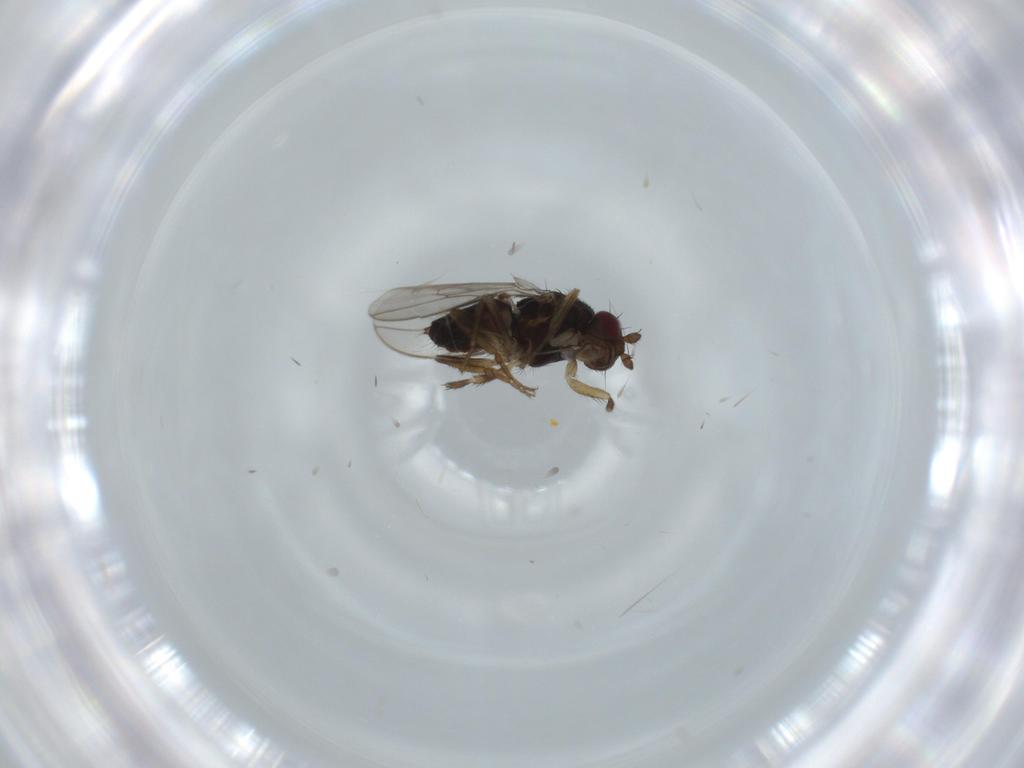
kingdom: Animalia
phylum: Arthropoda
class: Insecta
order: Diptera
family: Sphaeroceridae
